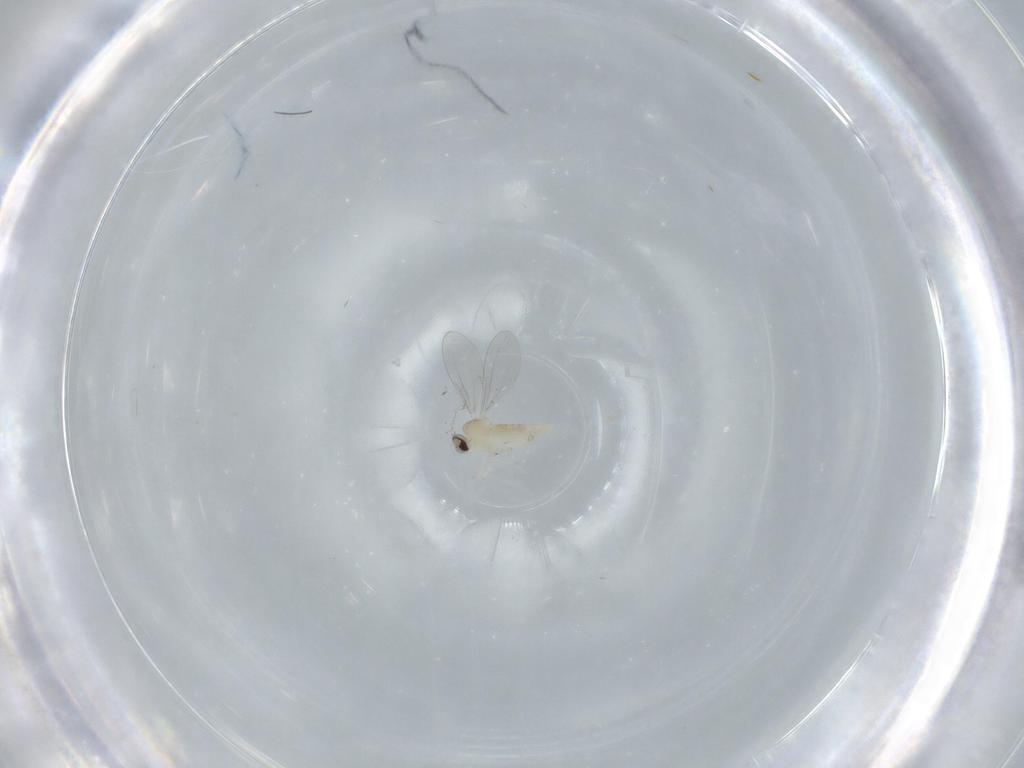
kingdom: Animalia
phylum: Arthropoda
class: Insecta
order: Diptera
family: Cecidomyiidae
